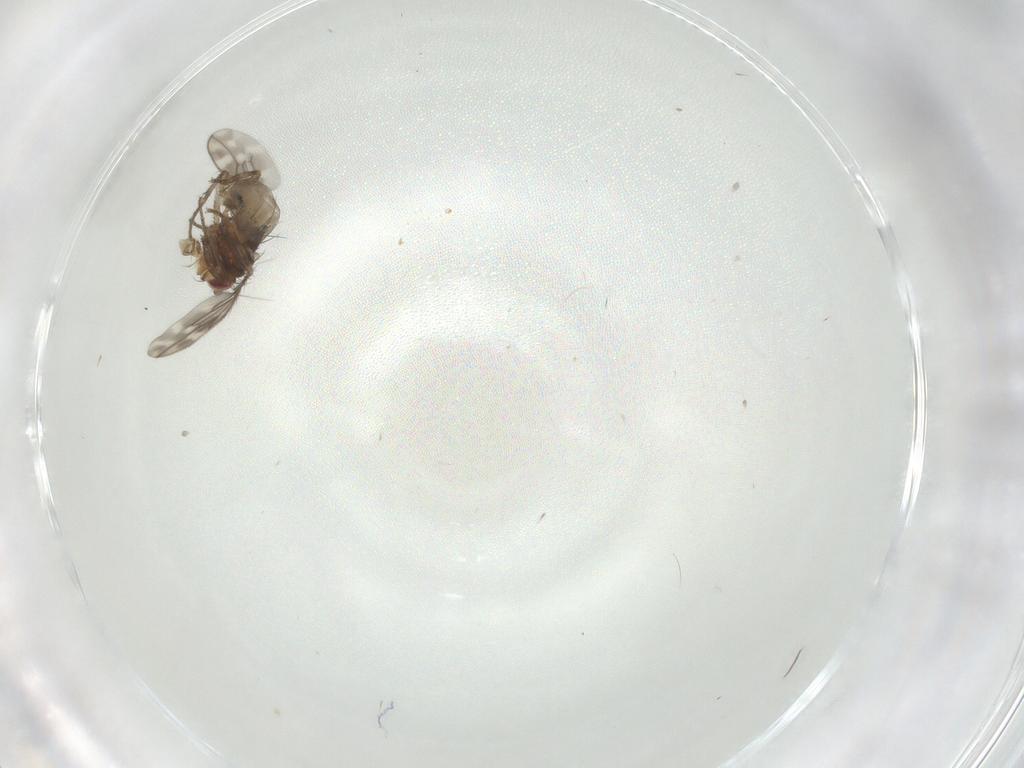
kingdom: Animalia
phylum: Arthropoda
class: Insecta
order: Diptera
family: Sphaeroceridae
